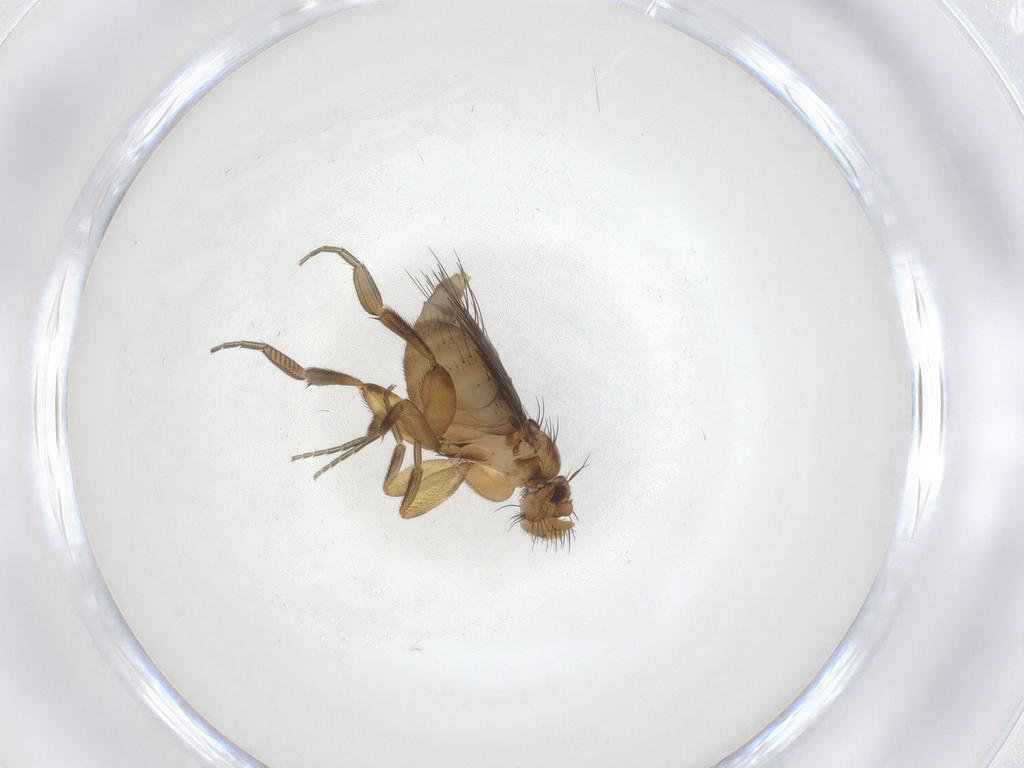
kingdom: Animalia
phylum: Arthropoda
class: Insecta
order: Diptera
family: Phoridae
